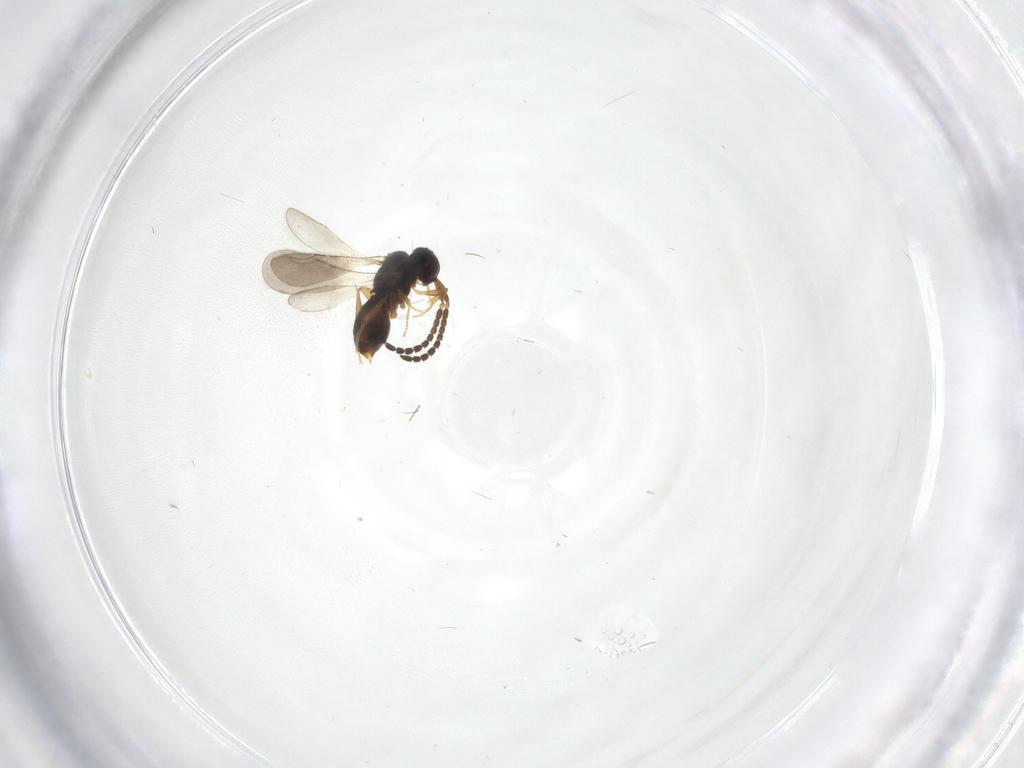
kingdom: Animalia
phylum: Arthropoda
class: Insecta
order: Hymenoptera
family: Ceraphronidae
